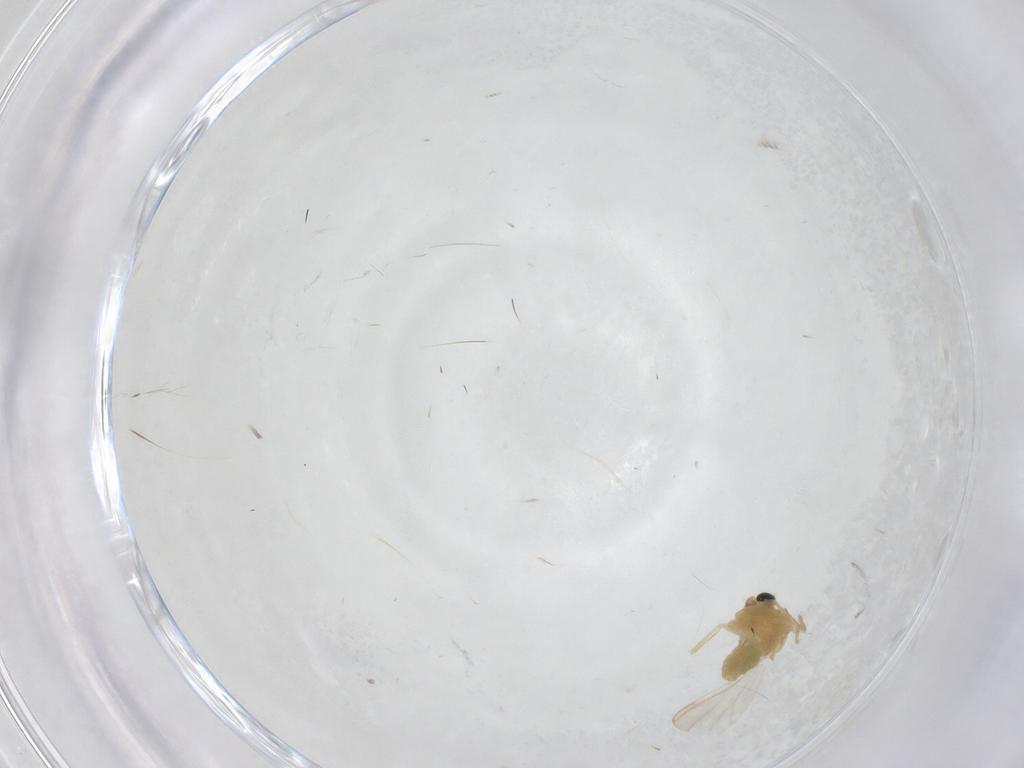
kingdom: Animalia
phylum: Arthropoda
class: Insecta
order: Diptera
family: Chironomidae
